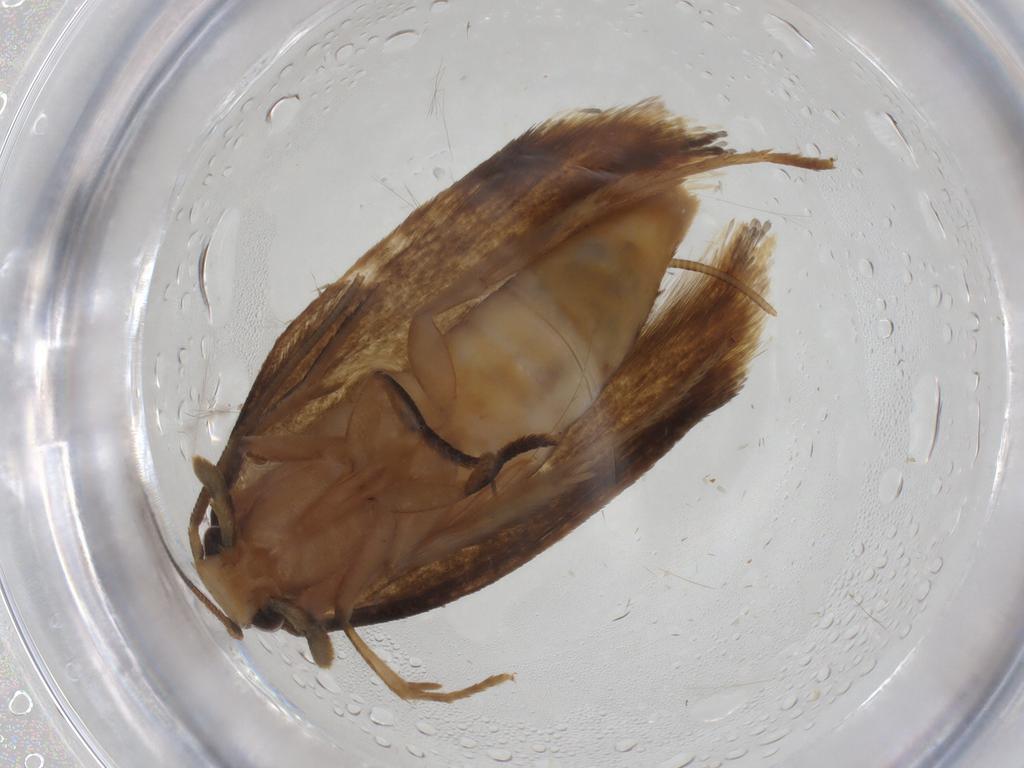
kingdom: Animalia
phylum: Arthropoda
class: Insecta
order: Lepidoptera
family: Tineidae
